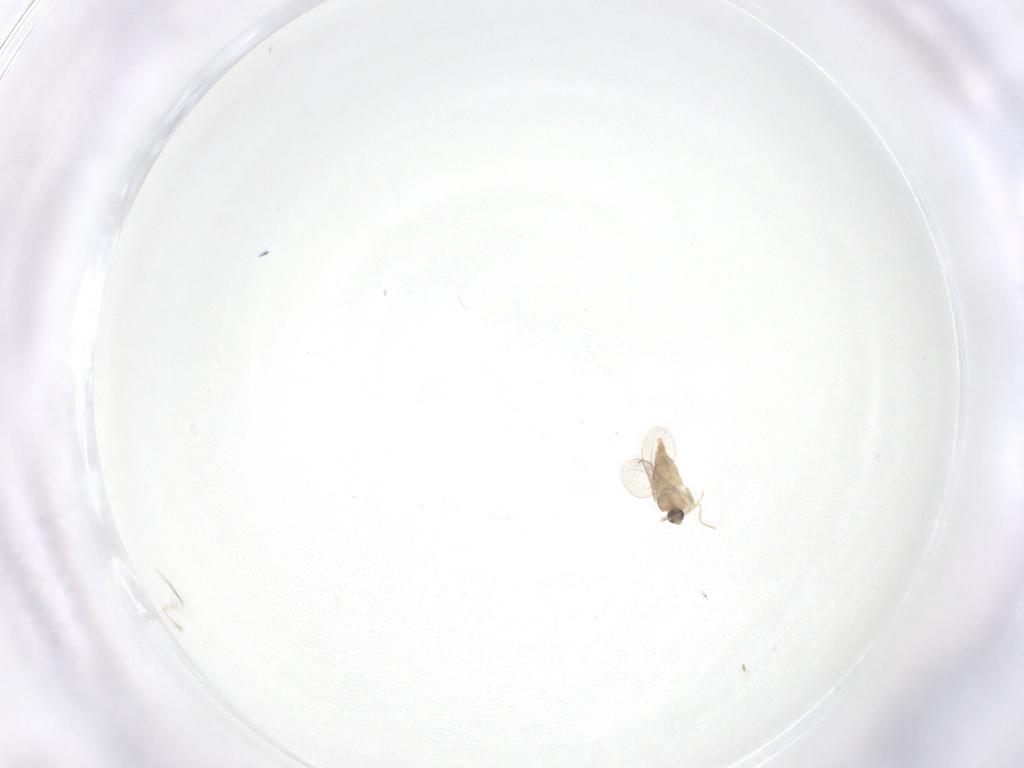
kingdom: Animalia
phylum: Arthropoda
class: Insecta
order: Diptera
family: Cecidomyiidae
